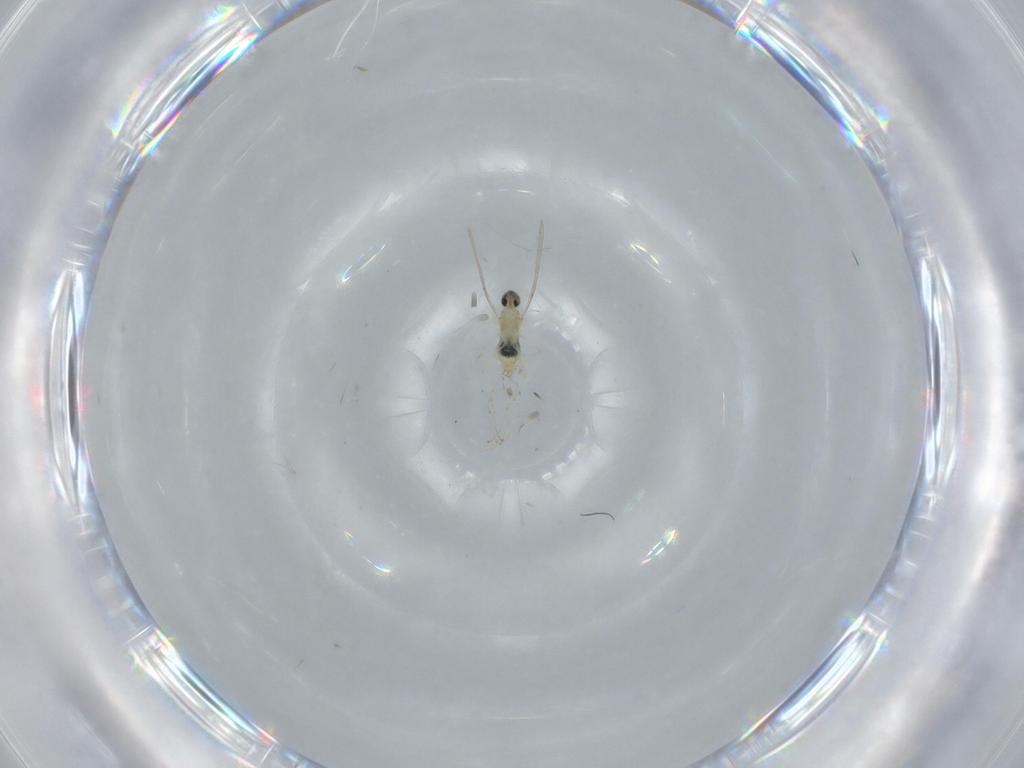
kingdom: Animalia
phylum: Arthropoda
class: Insecta
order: Diptera
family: Cecidomyiidae
